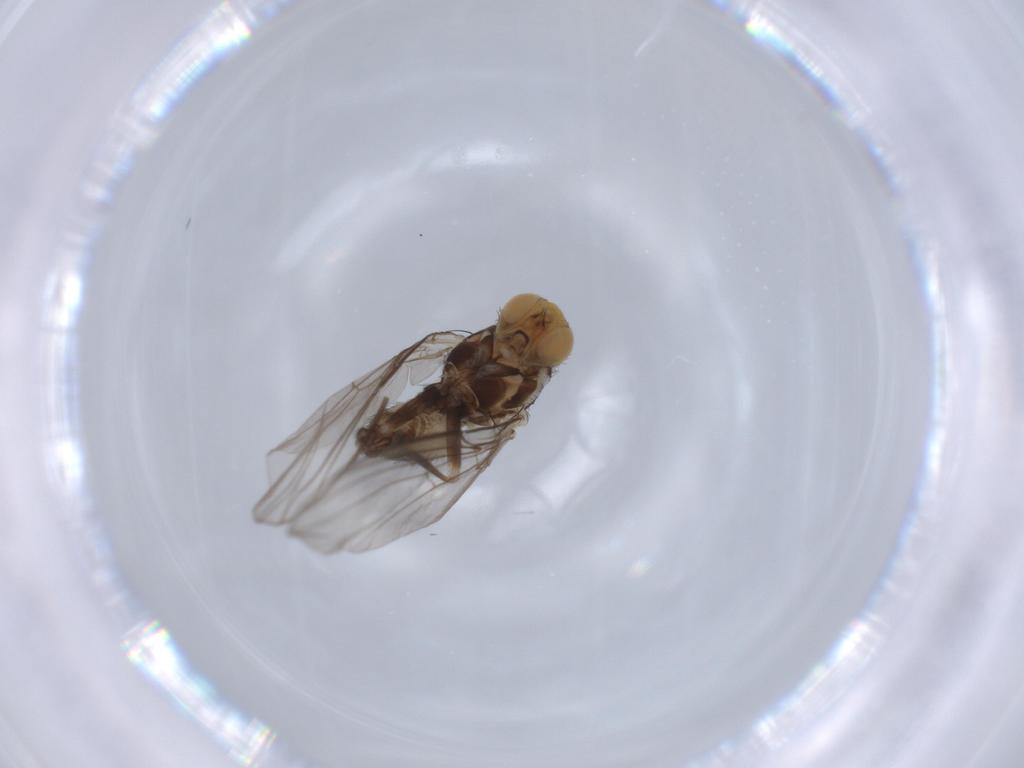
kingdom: Animalia
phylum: Arthropoda
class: Insecta
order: Diptera
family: Agromyzidae
